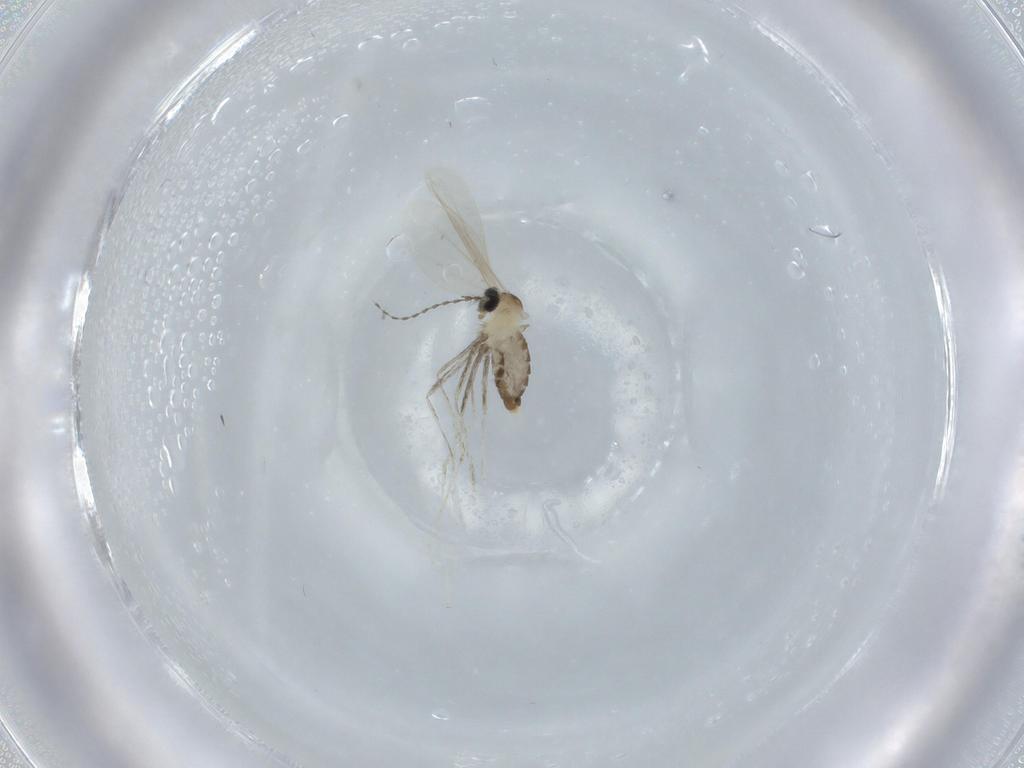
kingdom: Animalia
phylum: Arthropoda
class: Insecta
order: Diptera
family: Cecidomyiidae
